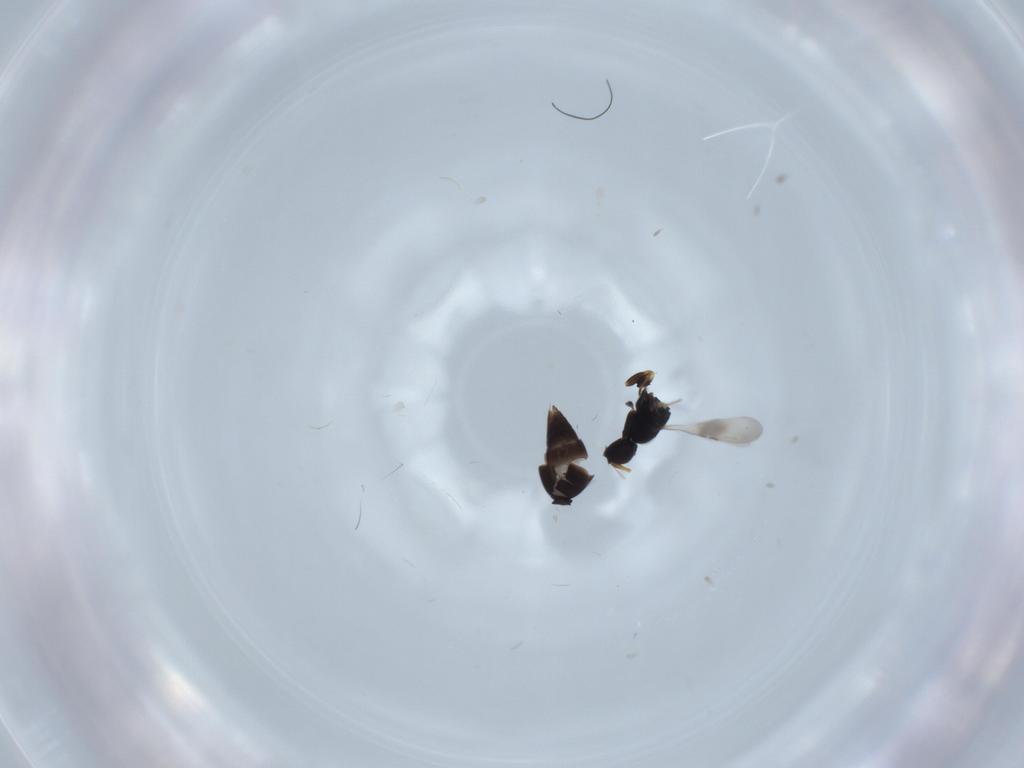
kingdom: Animalia
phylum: Arthropoda
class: Insecta
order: Hymenoptera
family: Ceraphronidae
